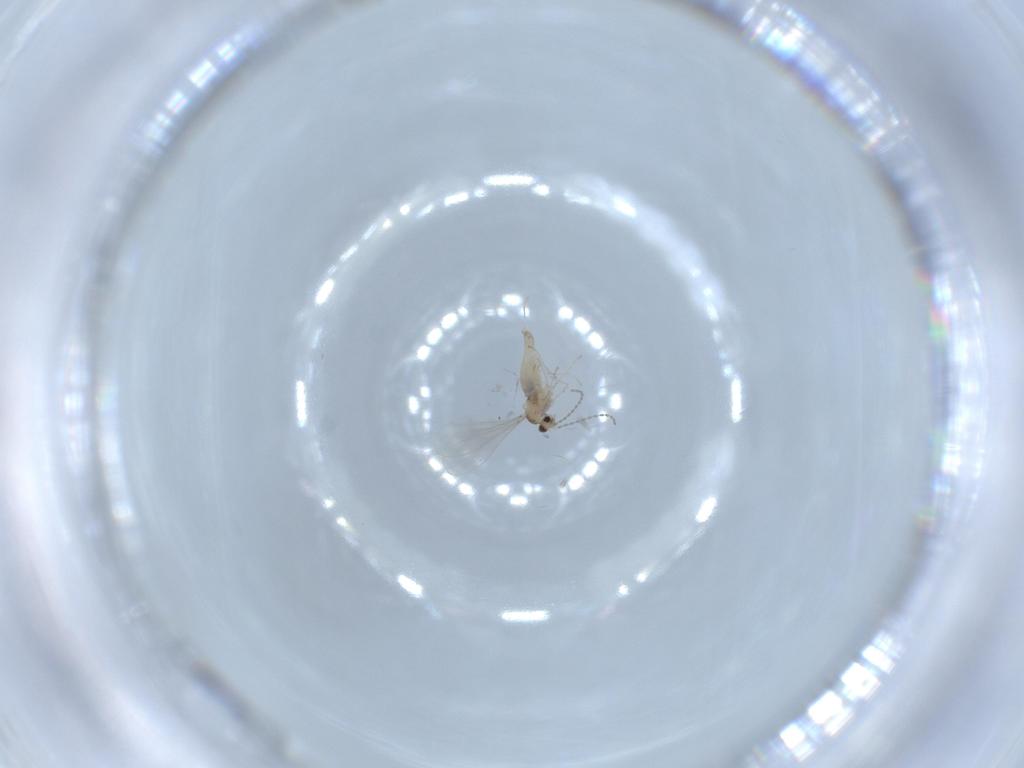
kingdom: Animalia
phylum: Arthropoda
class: Insecta
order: Diptera
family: Cecidomyiidae
